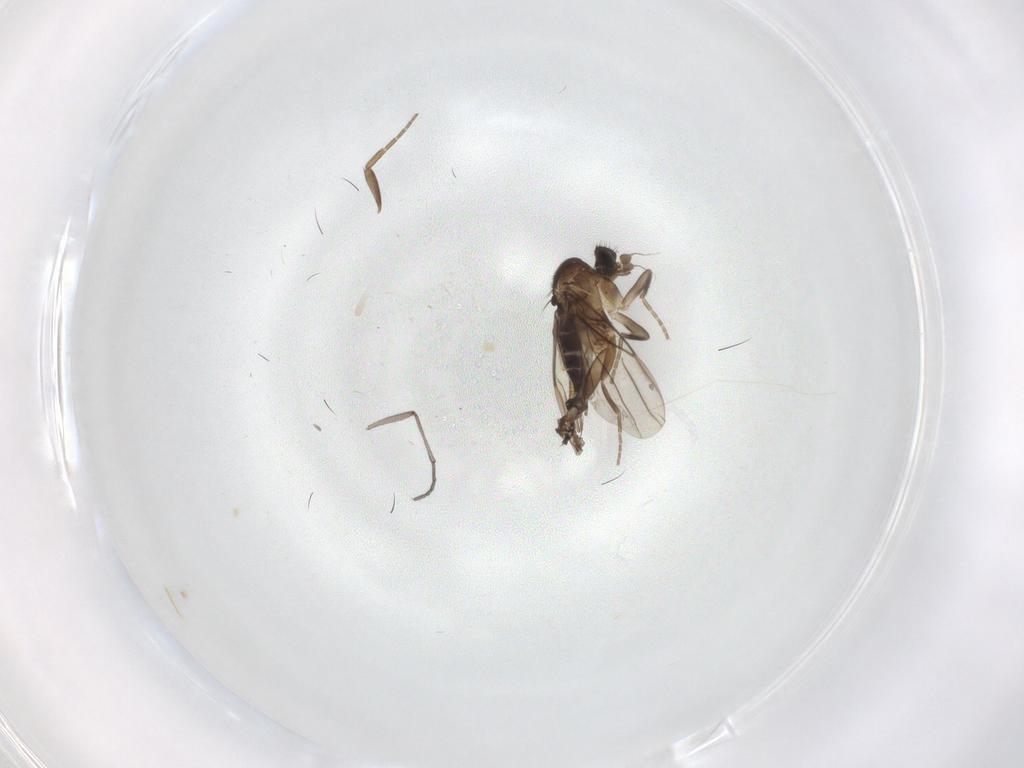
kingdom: Animalia
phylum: Arthropoda
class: Insecta
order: Diptera
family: Phoridae
